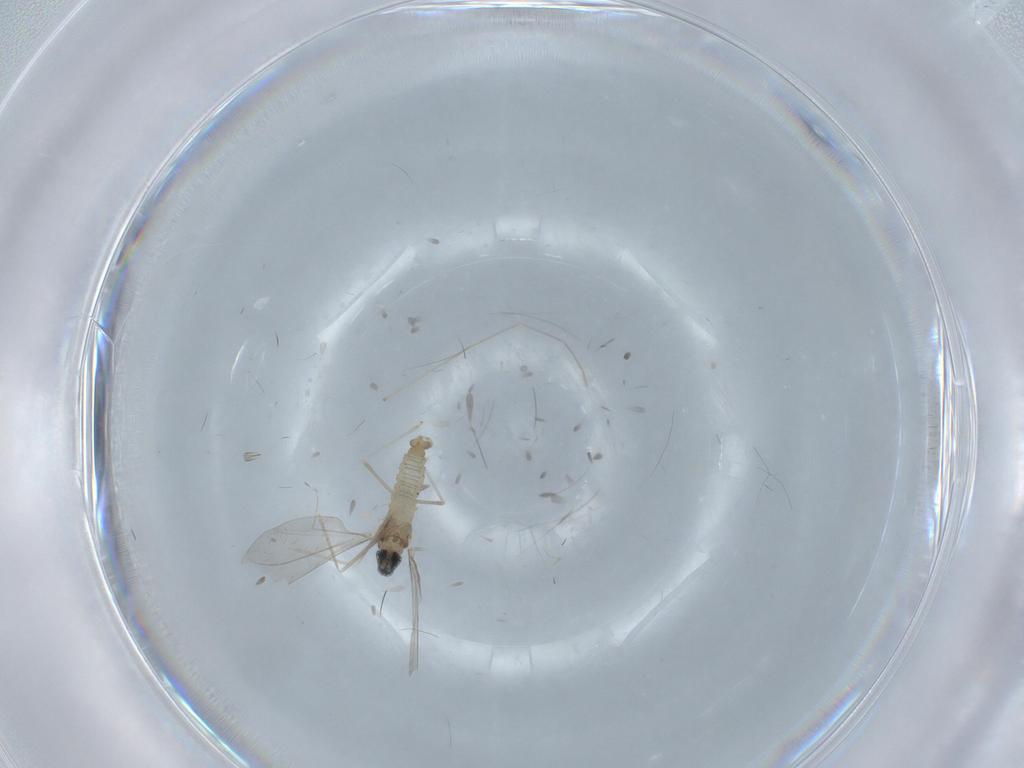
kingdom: Animalia
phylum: Arthropoda
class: Insecta
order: Diptera
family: Chironomidae
